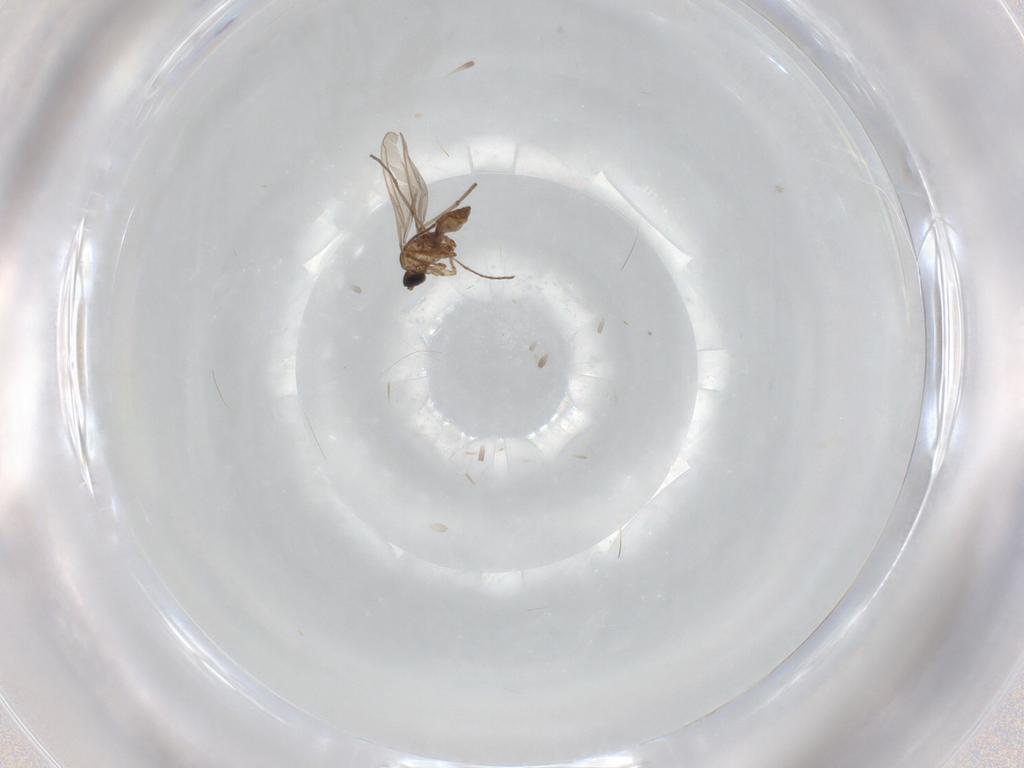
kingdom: Animalia
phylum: Arthropoda
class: Insecta
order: Diptera
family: Sciaridae
